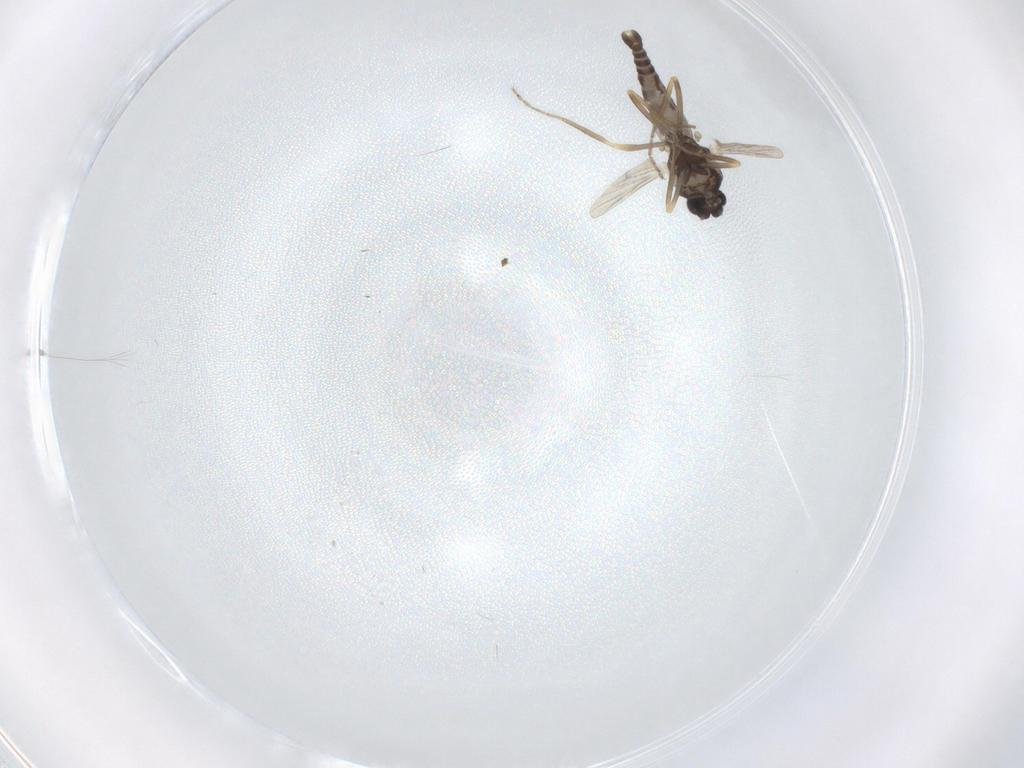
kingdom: Animalia
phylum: Arthropoda
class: Insecta
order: Diptera
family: Ceratopogonidae
